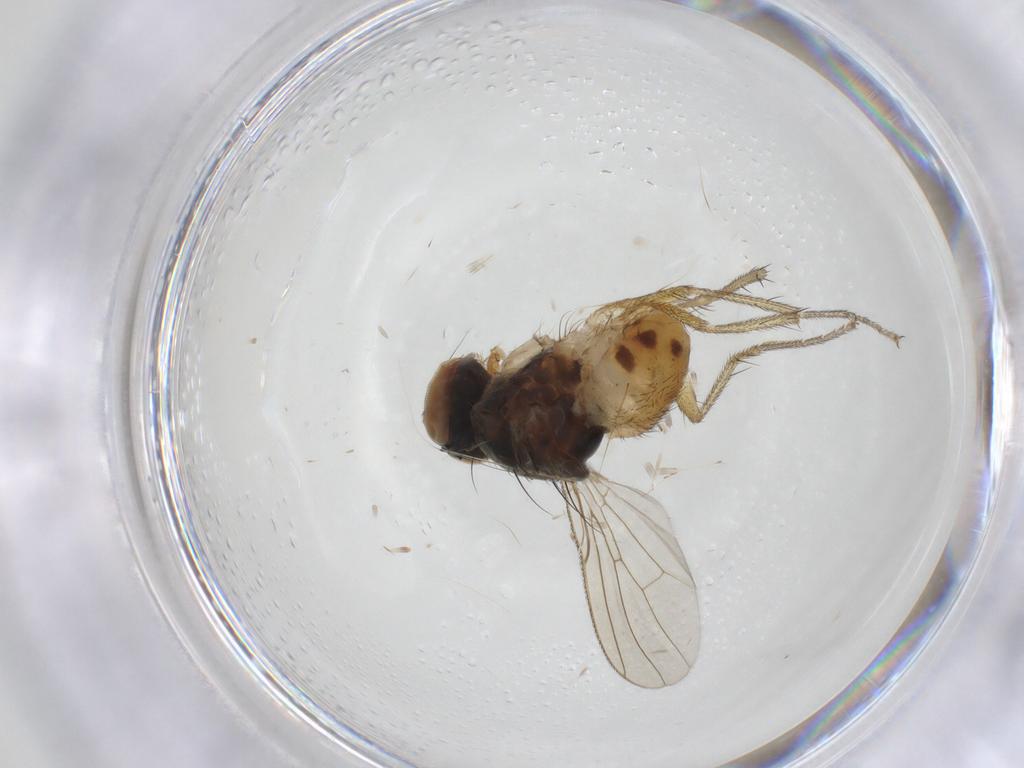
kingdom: Animalia
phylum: Arthropoda
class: Insecta
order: Diptera
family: Muscidae
